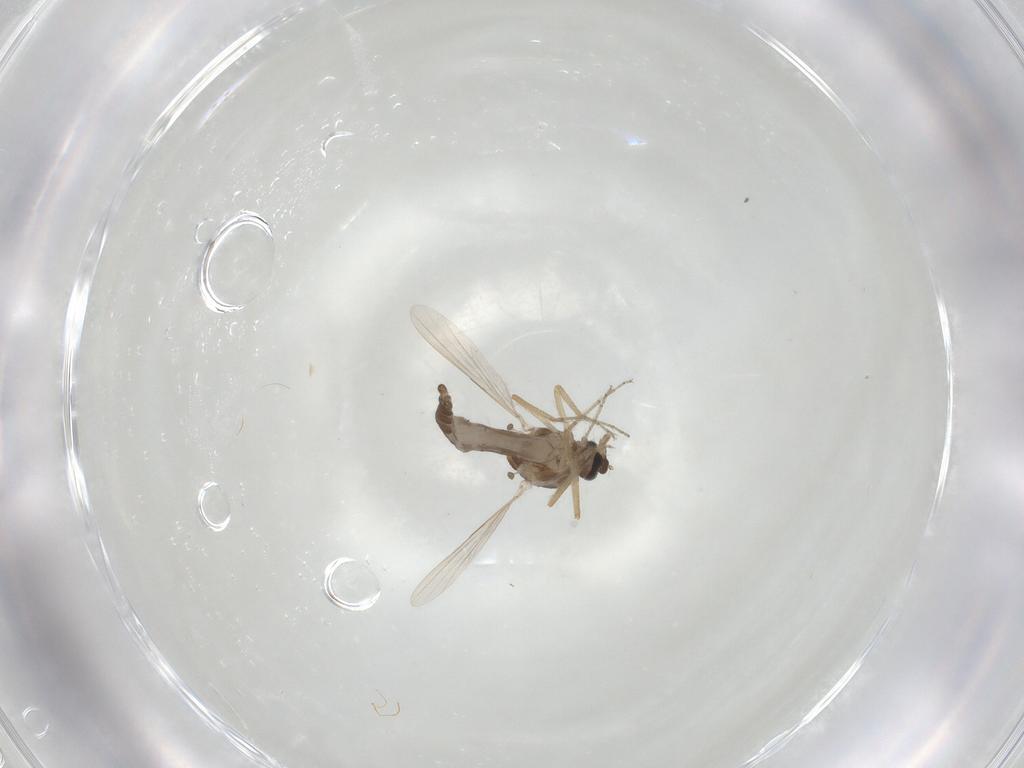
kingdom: Animalia
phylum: Arthropoda
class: Insecta
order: Diptera
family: Ceratopogonidae
